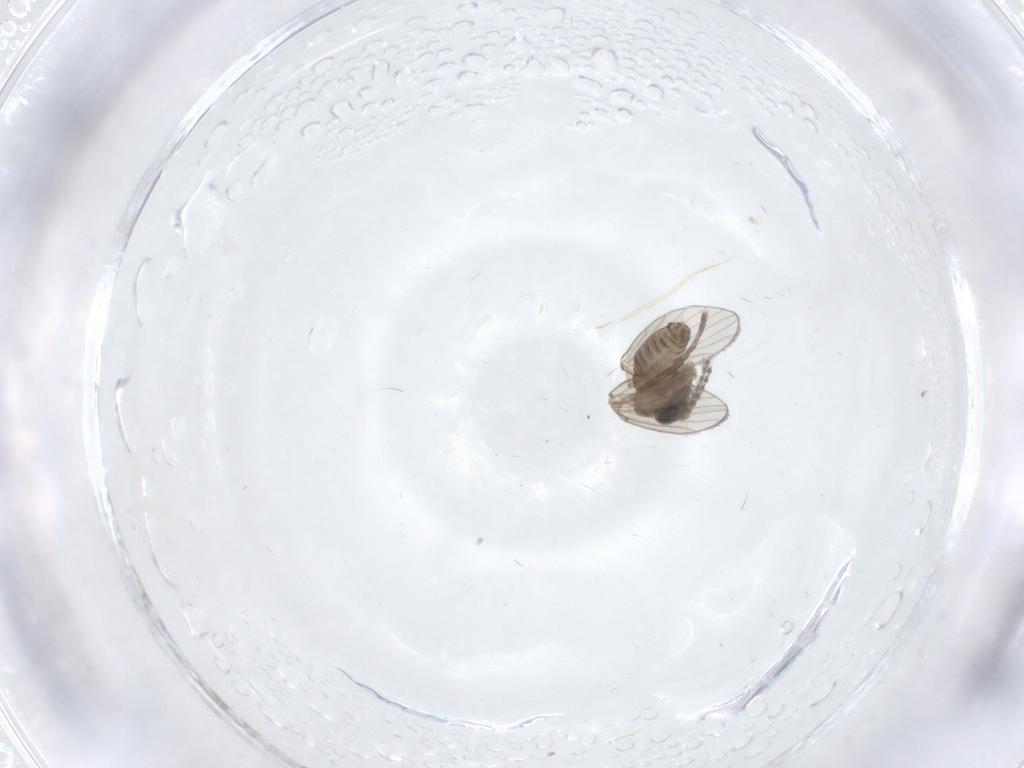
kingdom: Animalia
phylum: Arthropoda
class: Insecta
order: Diptera
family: Psychodidae
